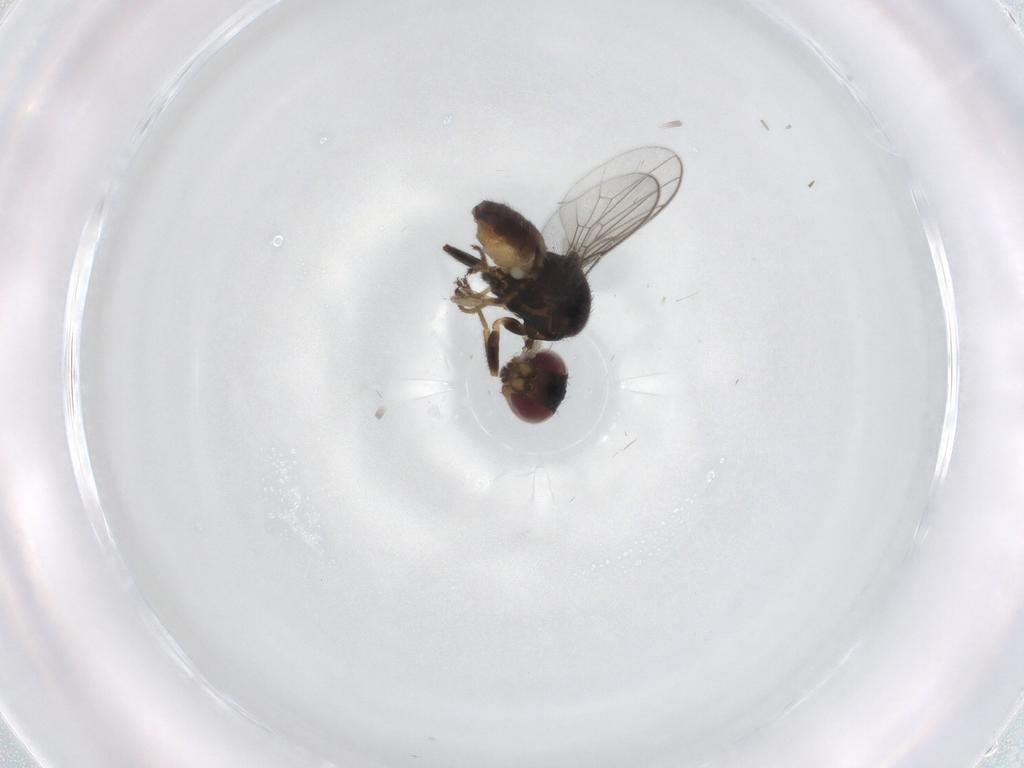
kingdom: Animalia
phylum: Arthropoda
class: Insecta
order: Diptera
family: Chloropidae
